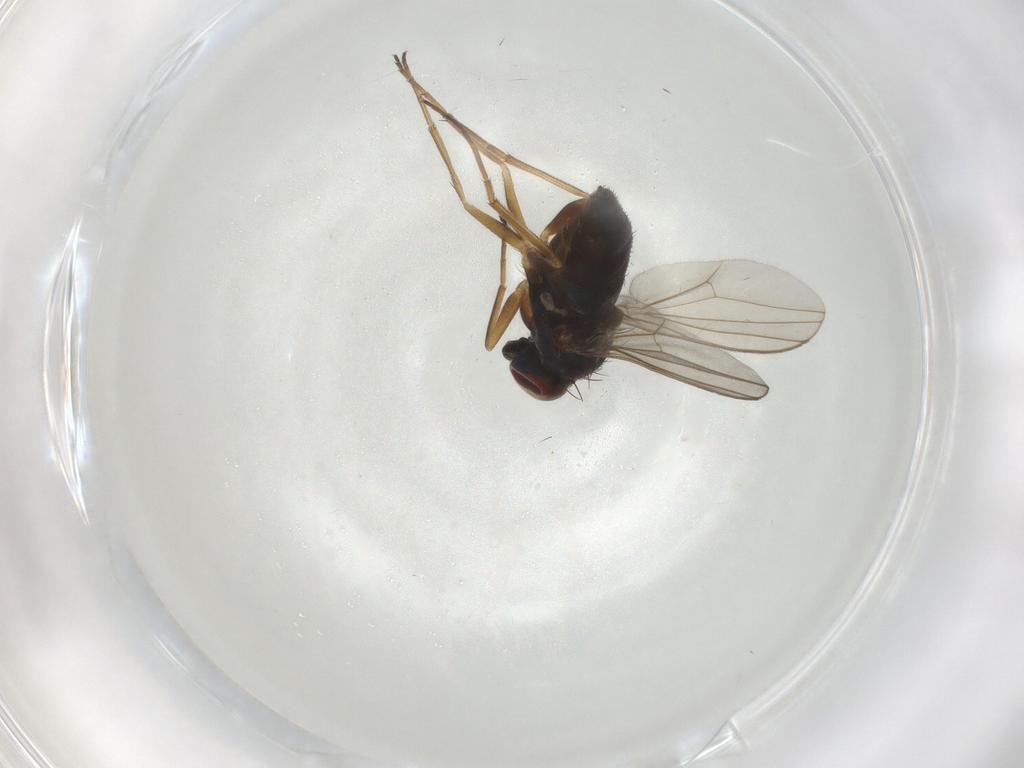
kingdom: Animalia
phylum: Arthropoda
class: Insecta
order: Diptera
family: Dolichopodidae
